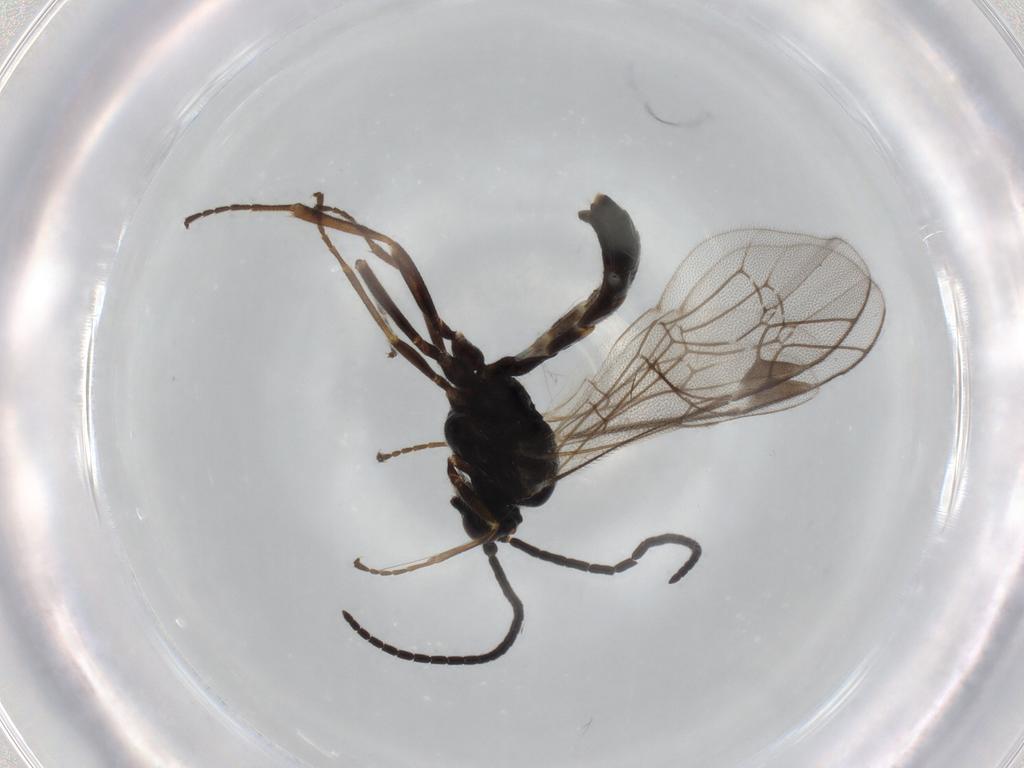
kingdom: Animalia
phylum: Arthropoda
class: Insecta
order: Hymenoptera
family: Ichneumonidae
